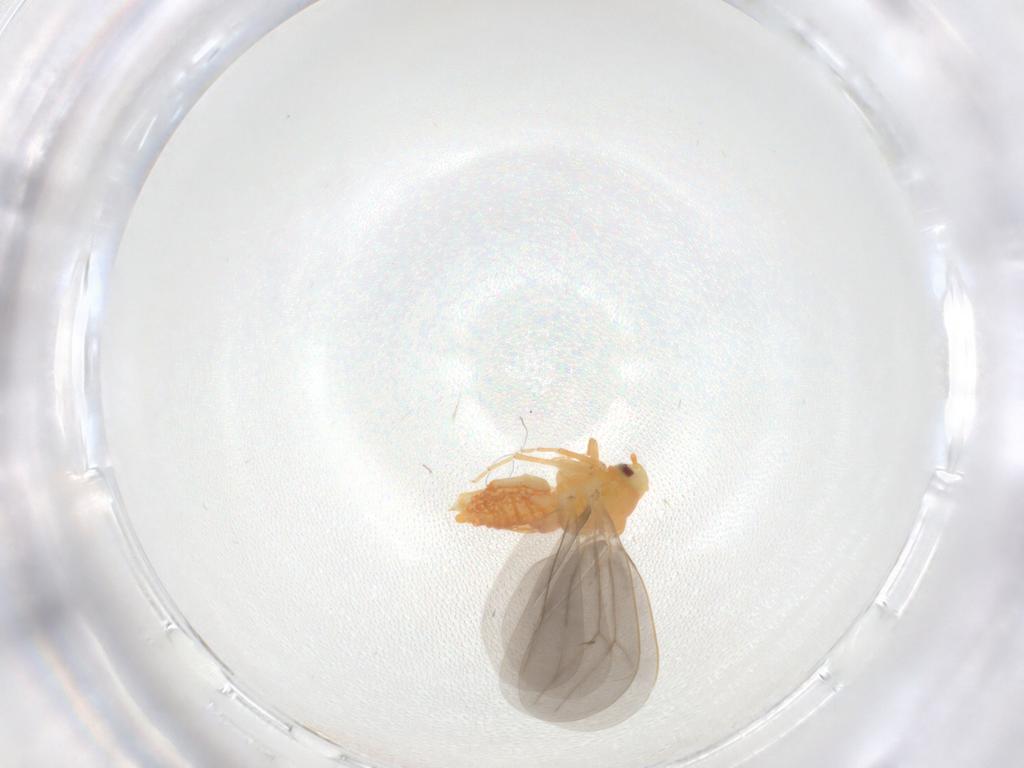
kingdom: Animalia
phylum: Arthropoda
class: Insecta
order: Hemiptera
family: Aleyrodidae
